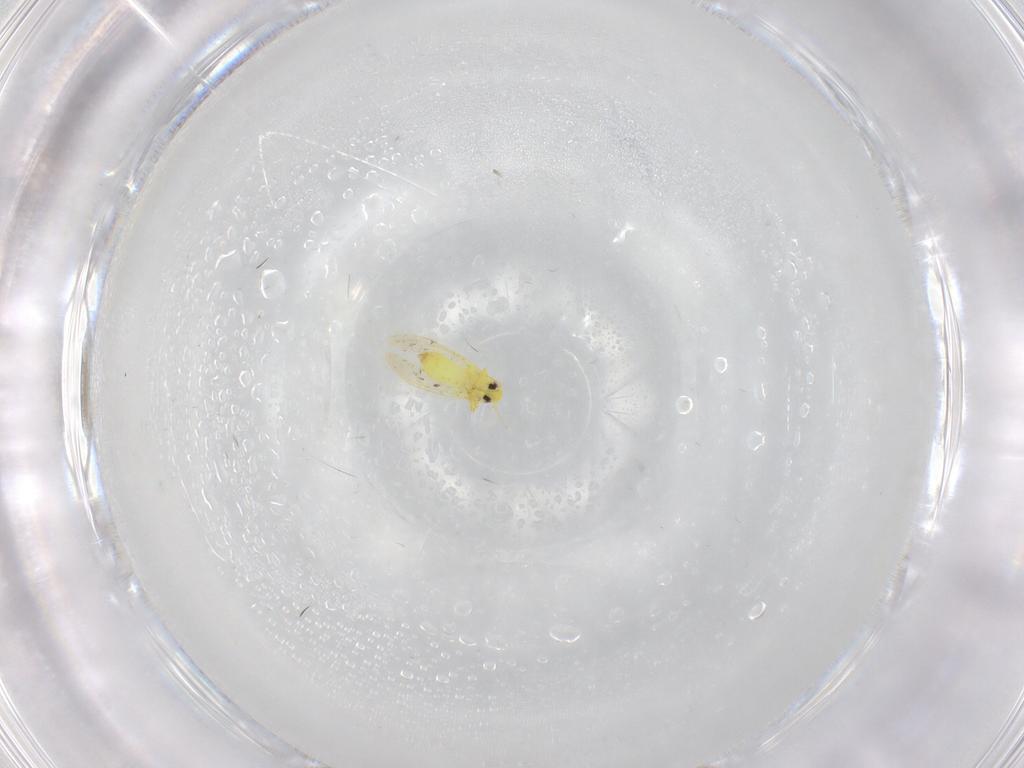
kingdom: Animalia
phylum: Arthropoda
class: Insecta
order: Hemiptera
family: Aleyrodidae
